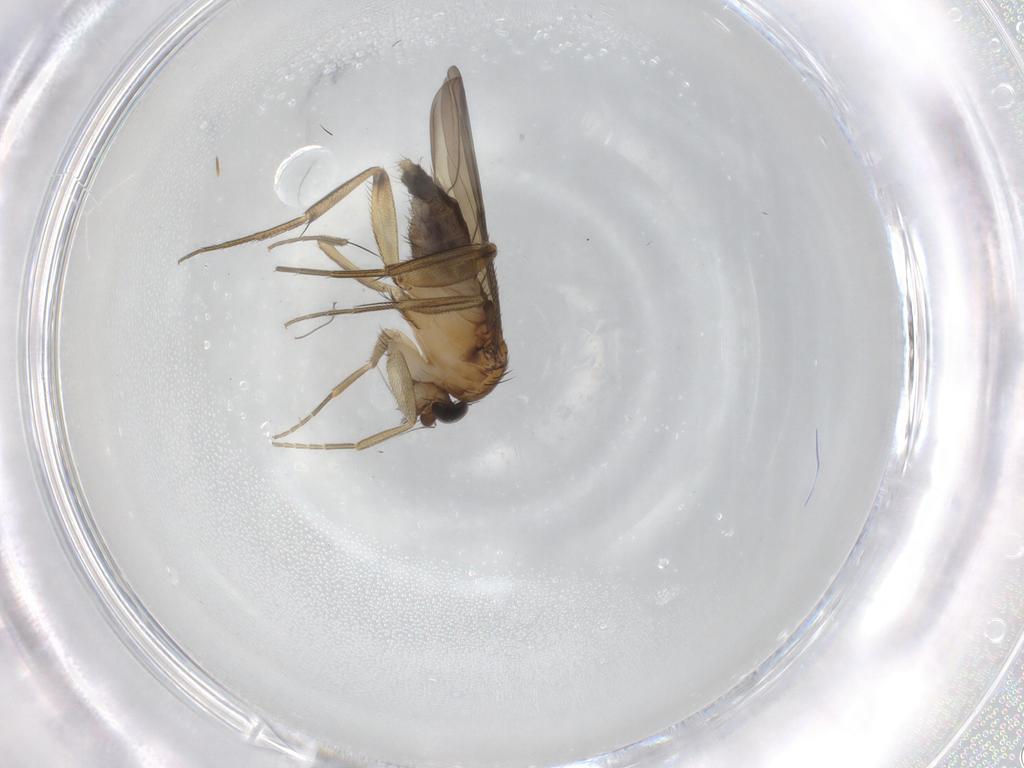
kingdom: Animalia
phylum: Arthropoda
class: Insecta
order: Diptera
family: Phoridae
